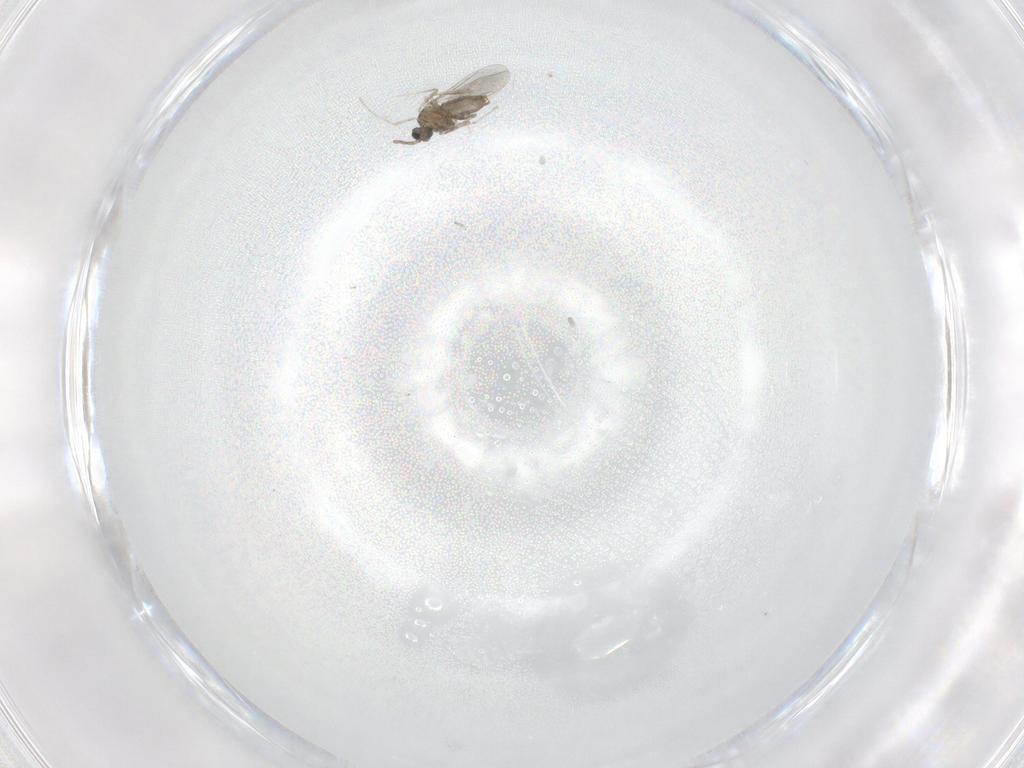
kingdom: Animalia
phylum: Arthropoda
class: Insecta
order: Diptera
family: Cecidomyiidae
